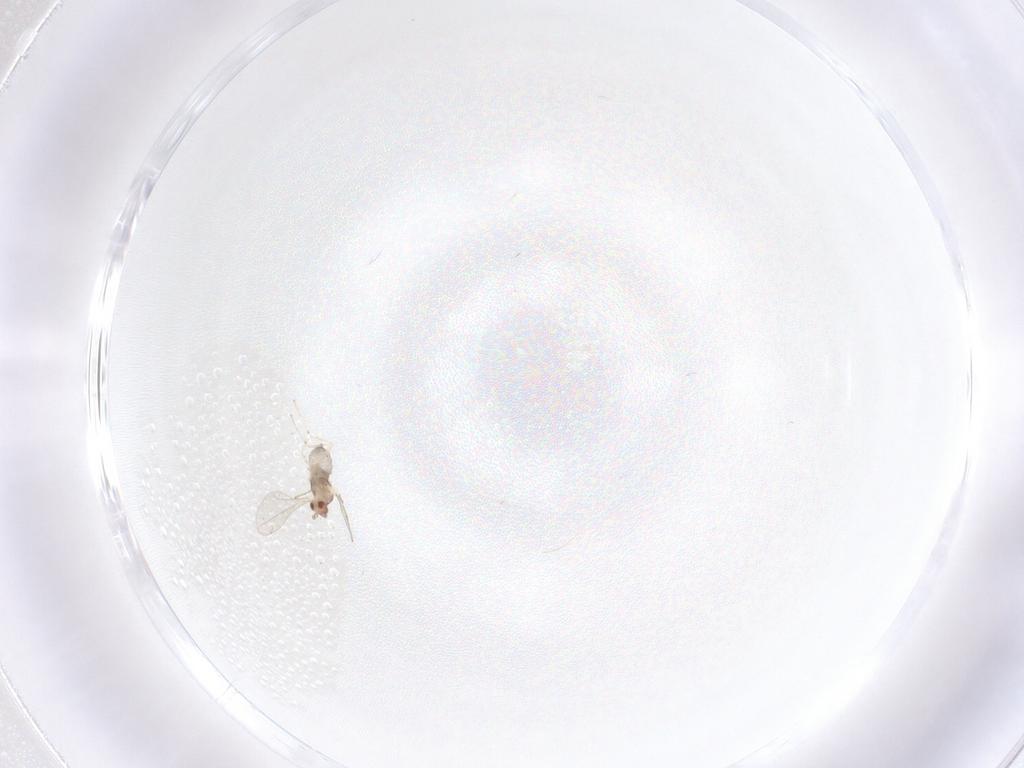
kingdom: Animalia
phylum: Arthropoda
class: Insecta
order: Diptera
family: Cecidomyiidae
